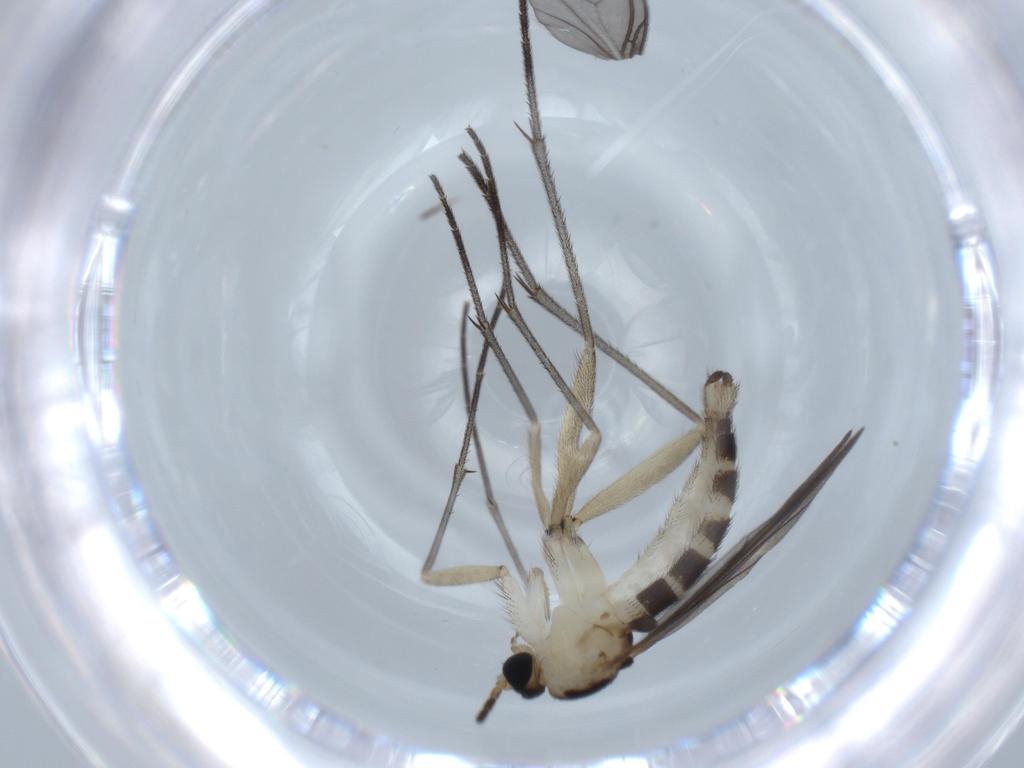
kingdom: Animalia
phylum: Arthropoda
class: Insecta
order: Diptera
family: Sciaridae
